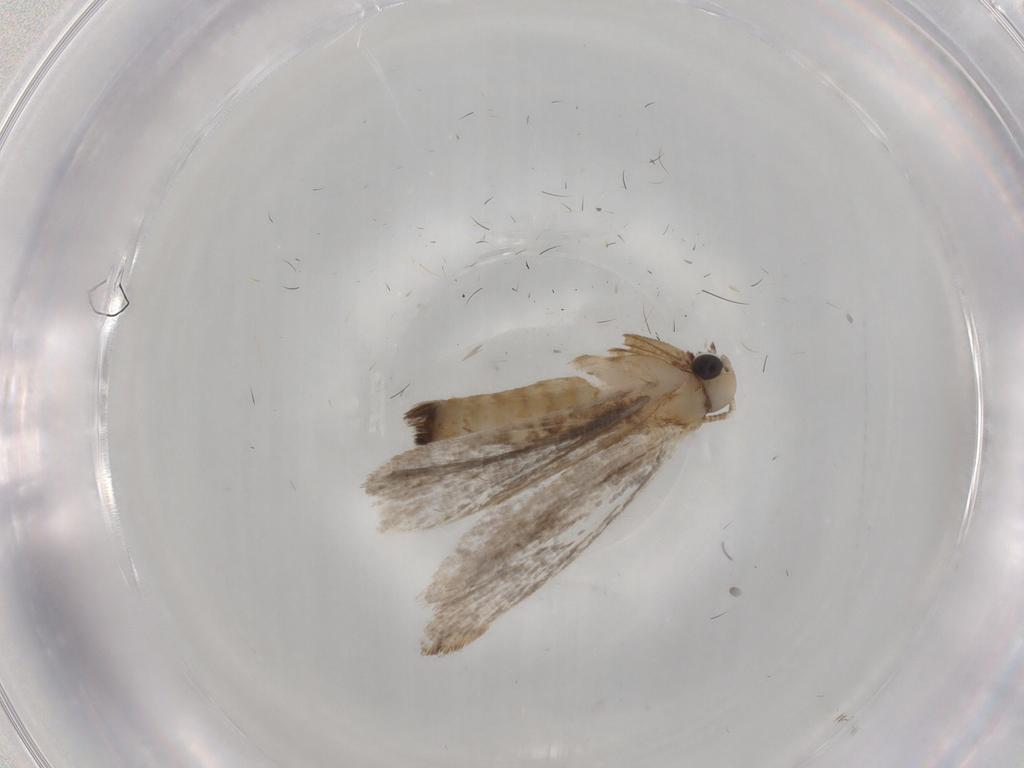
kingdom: Animalia
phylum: Arthropoda
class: Insecta
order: Lepidoptera
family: Tineidae
